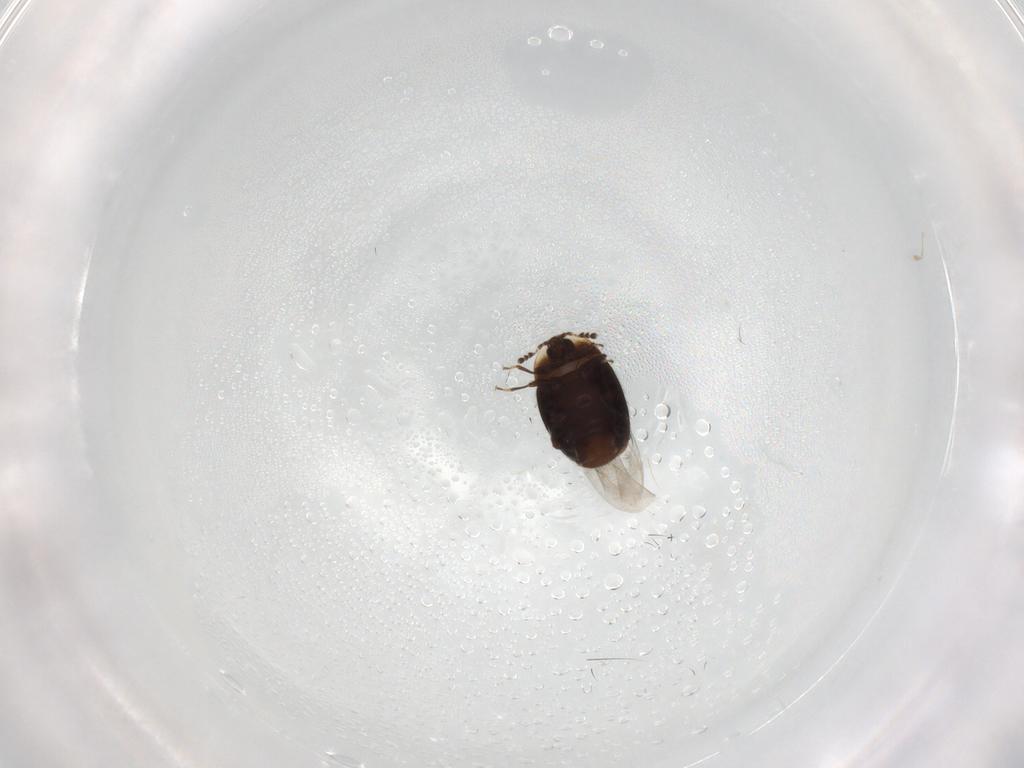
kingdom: Animalia
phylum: Arthropoda
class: Insecta
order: Coleoptera
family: Corylophidae
